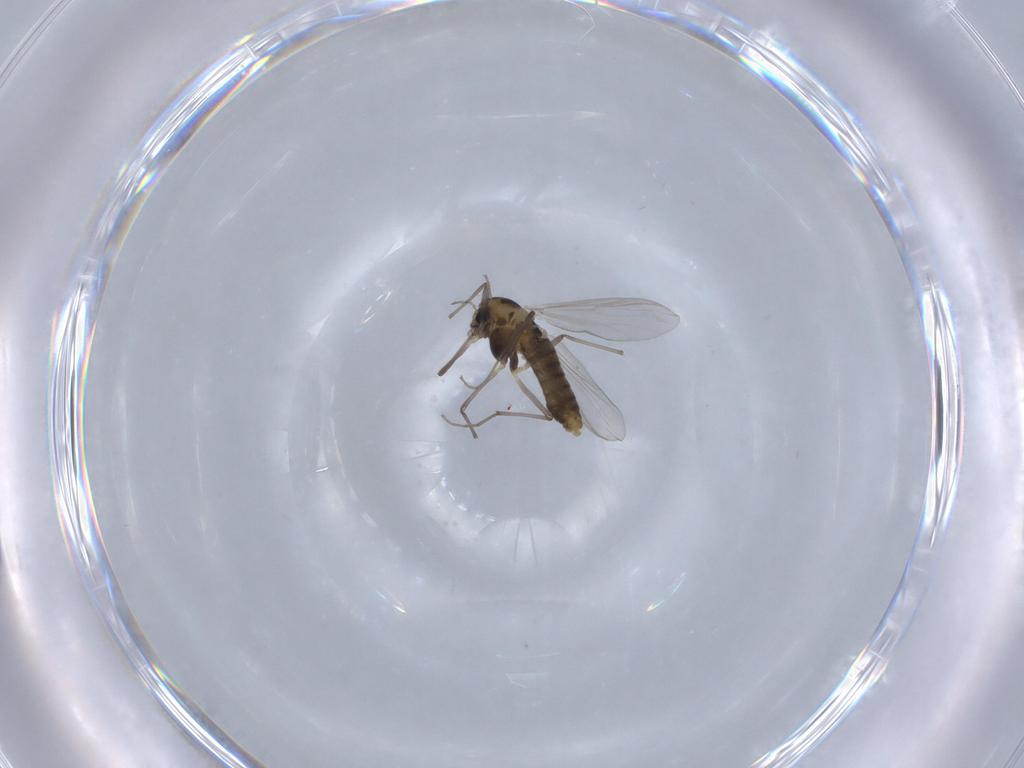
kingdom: Animalia
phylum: Arthropoda
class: Insecta
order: Diptera
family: Chironomidae
